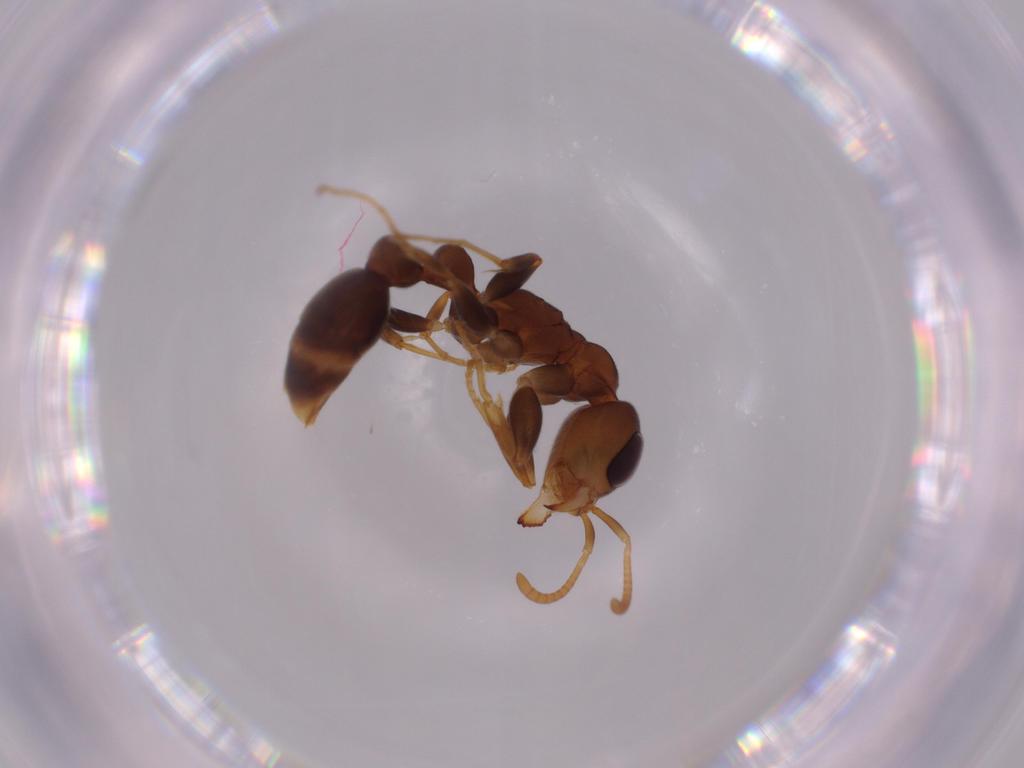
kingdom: Animalia
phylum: Arthropoda
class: Insecta
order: Hymenoptera
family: Formicidae
